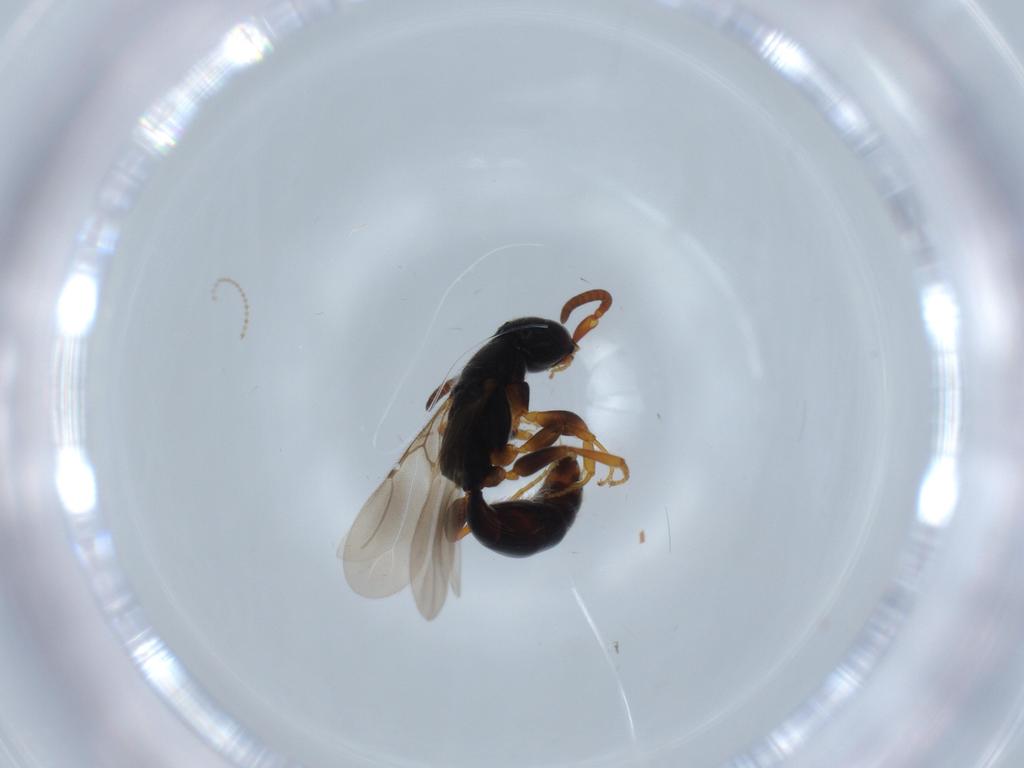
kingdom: Animalia
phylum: Arthropoda
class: Insecta
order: Hymenoptera
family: Bethylidae
